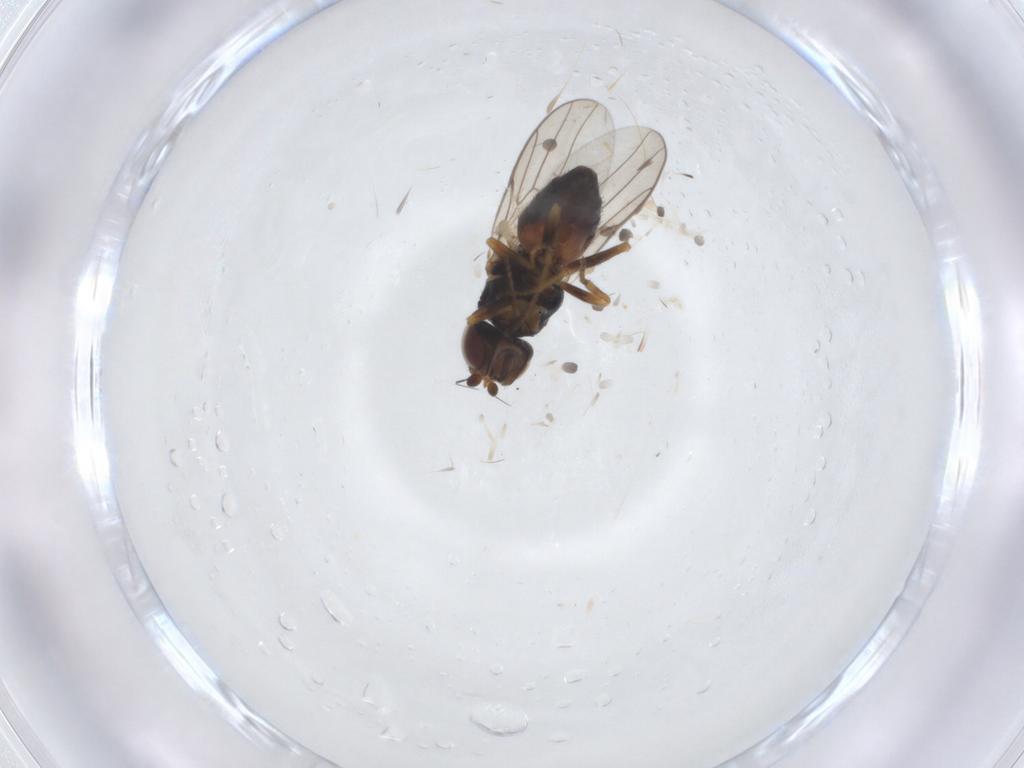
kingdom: Animalia
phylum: Arthropoda
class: Insecta
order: Diptera
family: Chloropidae
